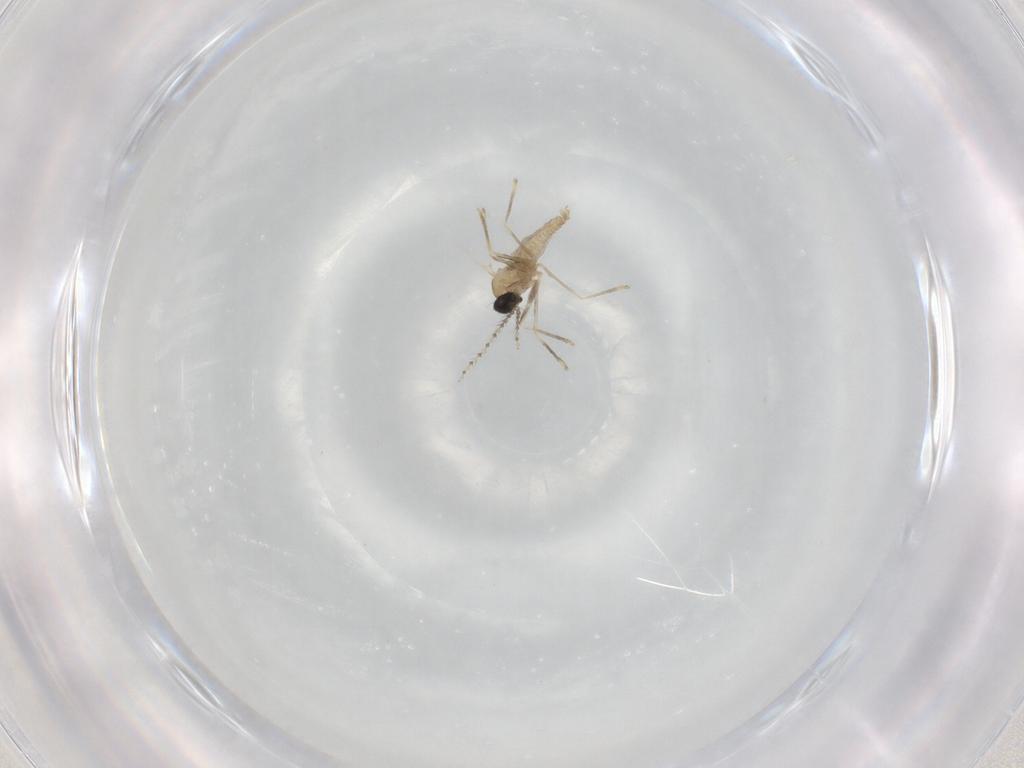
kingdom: Animalia
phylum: Arthropoda
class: Insecta
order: Diptera
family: Cecidomyiidae
